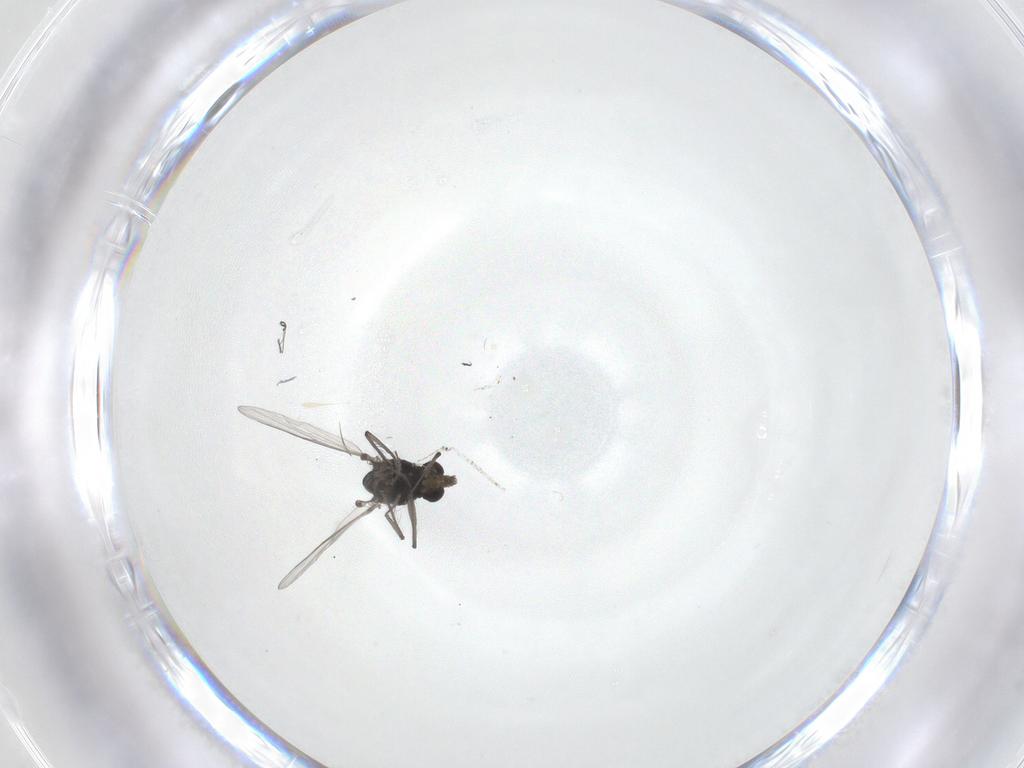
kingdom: Animalia
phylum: Arthropoda
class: Insecta
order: Diptera
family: Chironomidae
